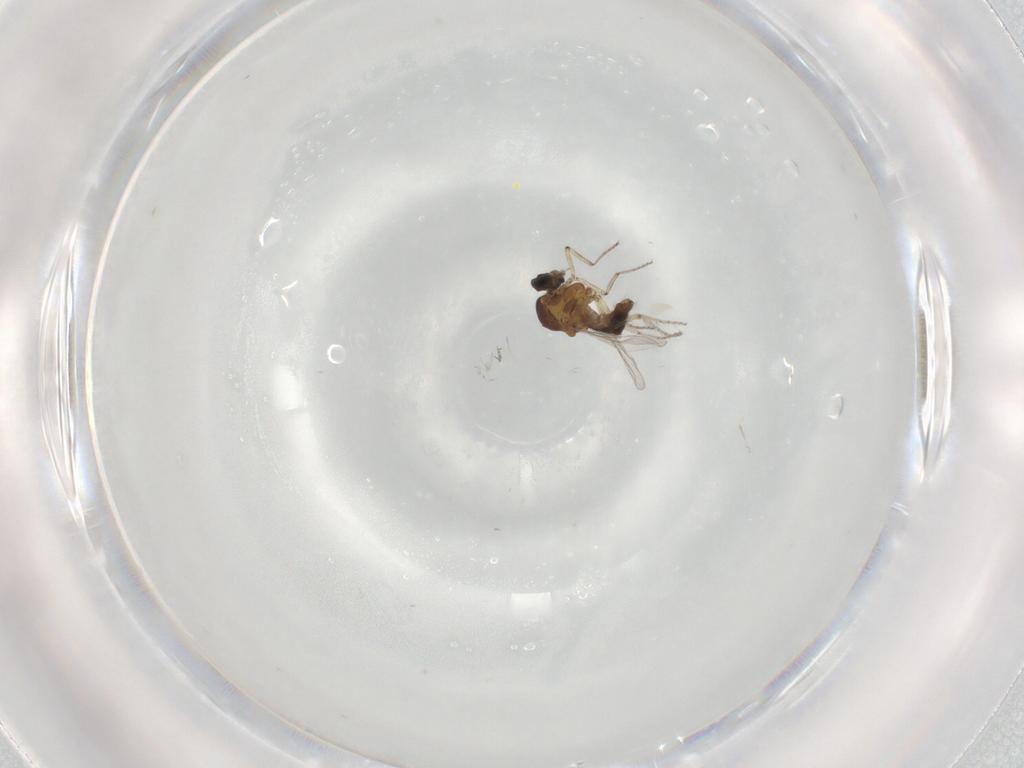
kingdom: Animalia
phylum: Arthropoda
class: Insecta
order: Diptera
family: Ceratopogonidae
